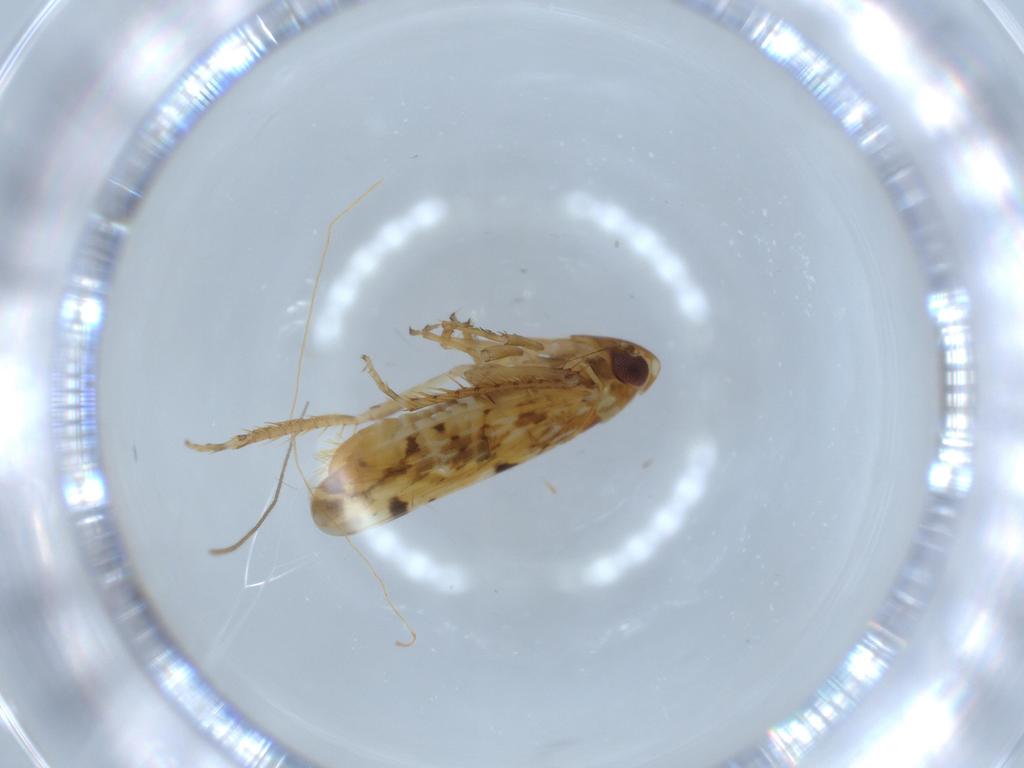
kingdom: Animalia
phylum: Arthropoda
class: Insecta
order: Hemiptera
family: Cicadellidae
